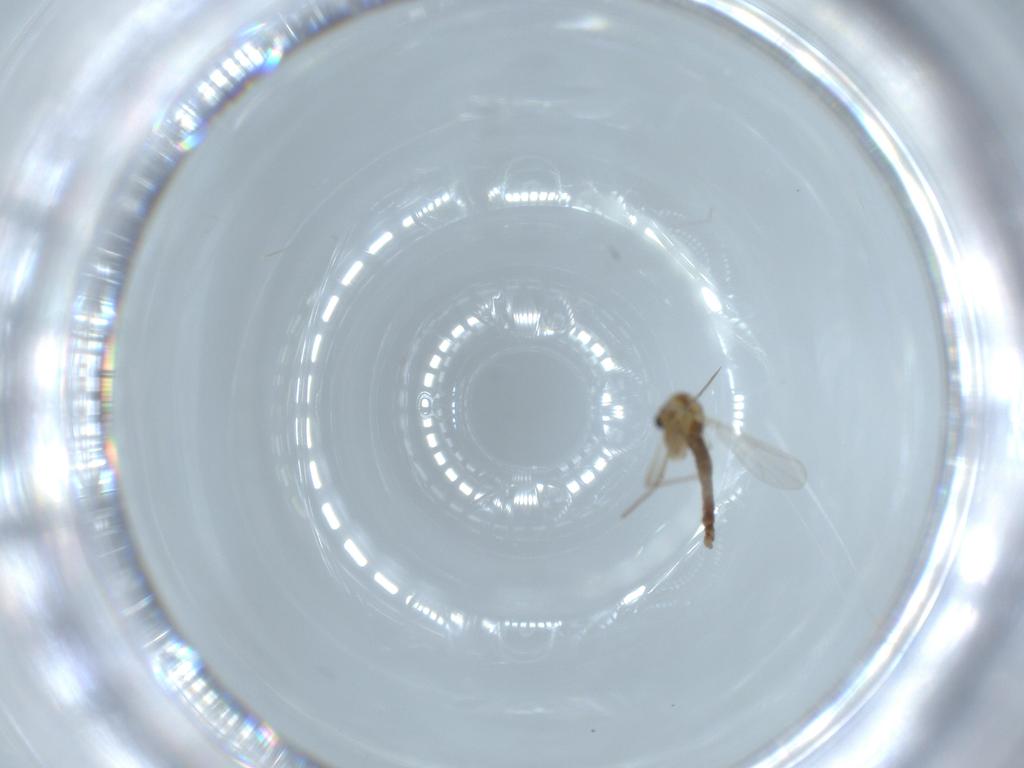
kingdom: Animalia
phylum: Arthropoda
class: Insecta
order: Diptera
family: Chironomidae
